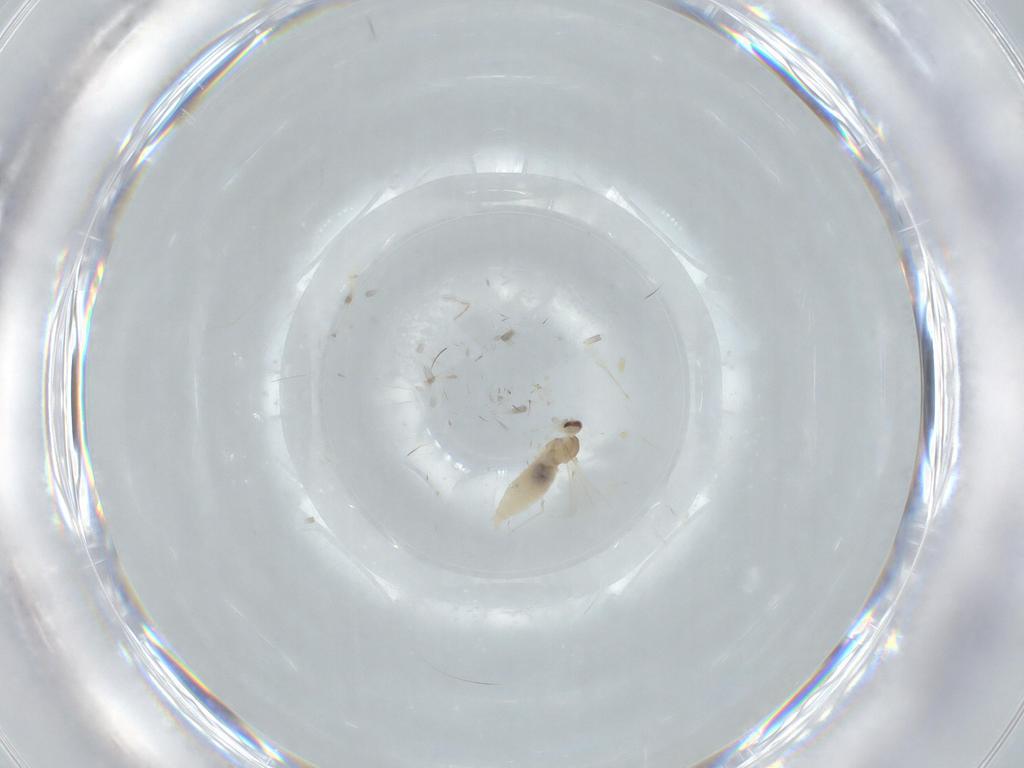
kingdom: Animalia
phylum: Arthropoda
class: Insecta
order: Diptera
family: Cecidomyiidae
